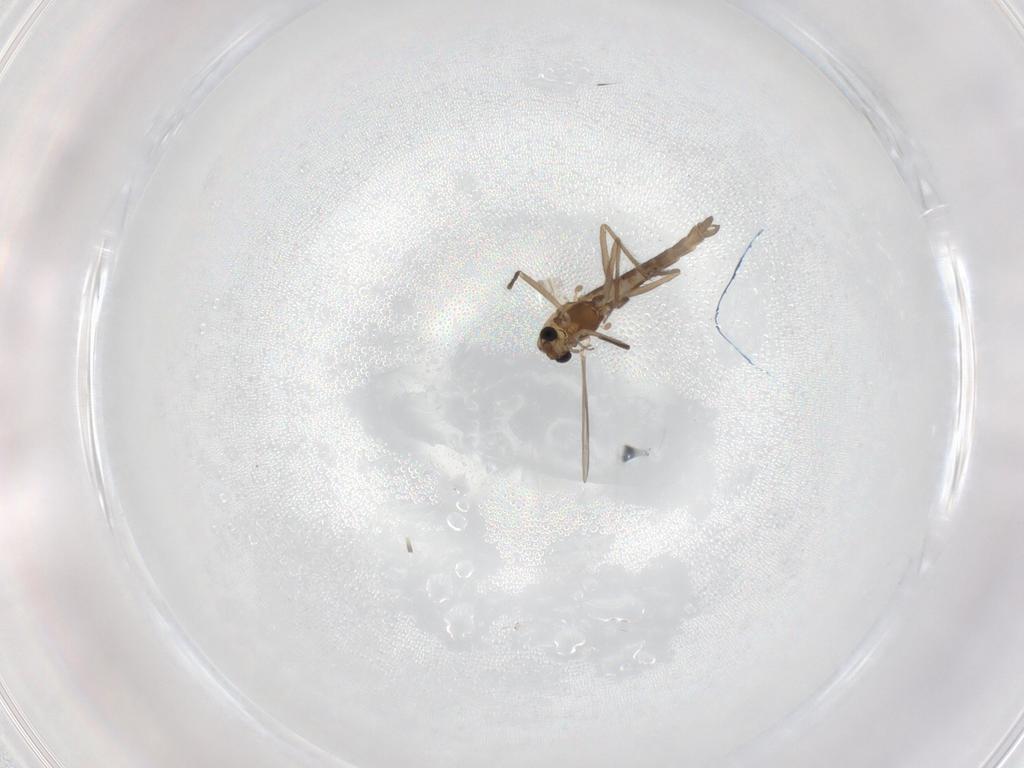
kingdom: Animalia
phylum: Arthropoda
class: Insecta
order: Diptera
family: Chironomidae
